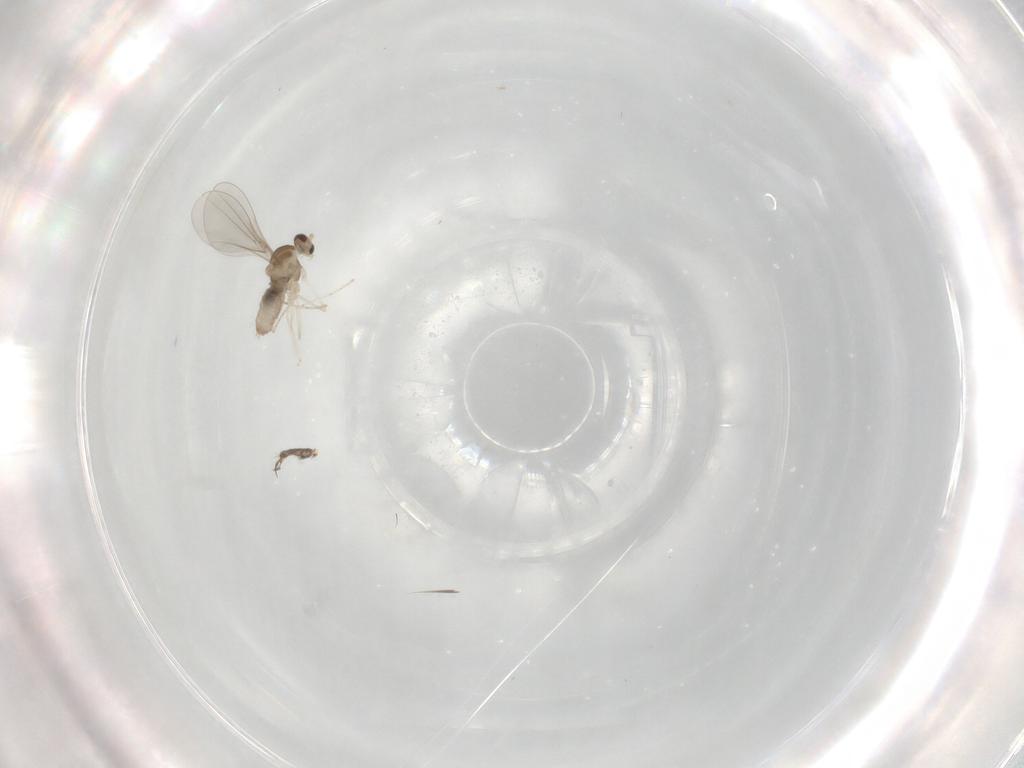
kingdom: Animalia
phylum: Arthropoda
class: Insecta
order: Diptera
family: Cecidomyiidae
